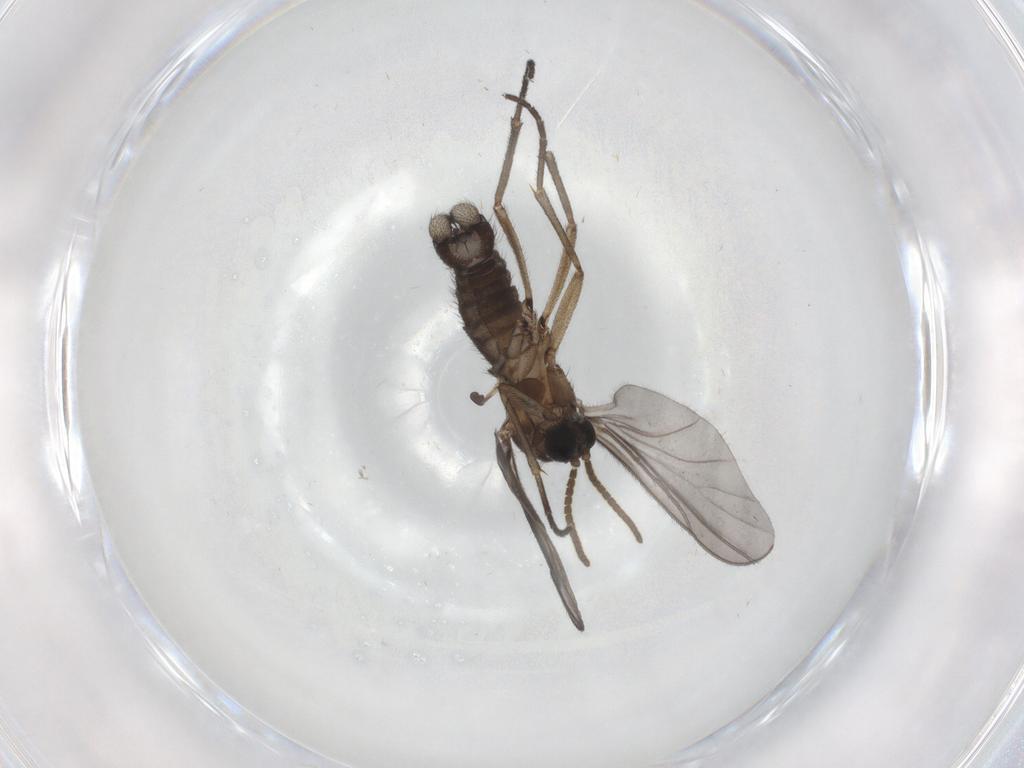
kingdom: Animalia
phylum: Arthropoda
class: Insecta
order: Diptera
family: Sciaridae
